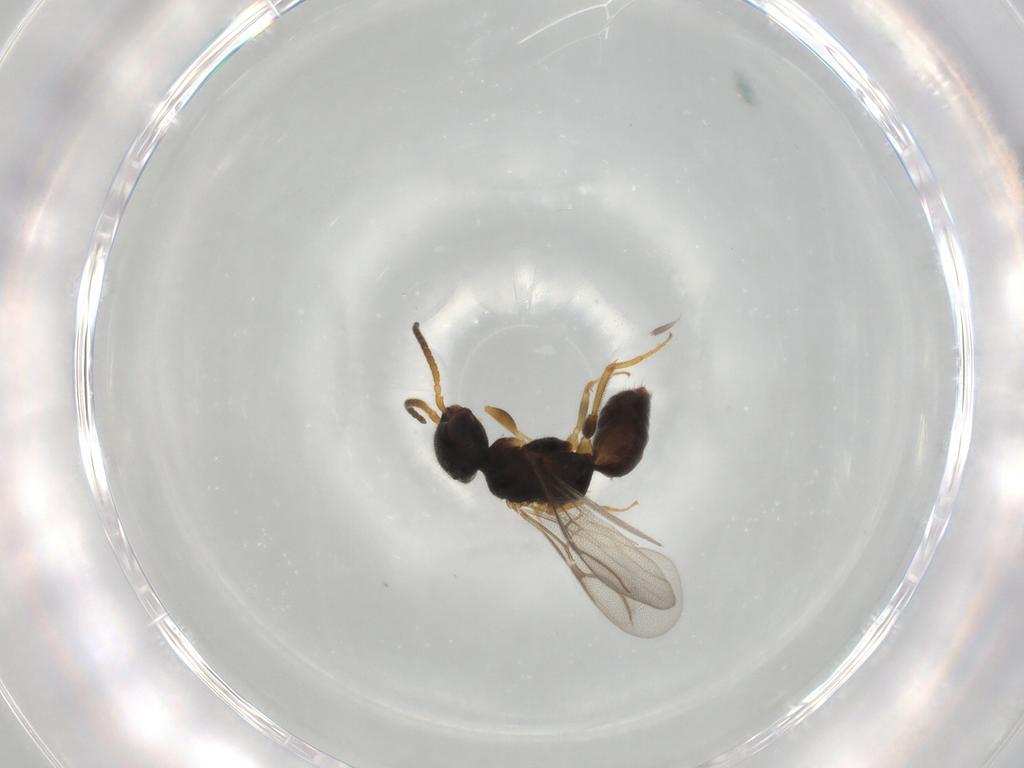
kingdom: Animalia
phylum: Arthropoda
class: Insecta
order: Hymenoptera
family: Bethylidae
